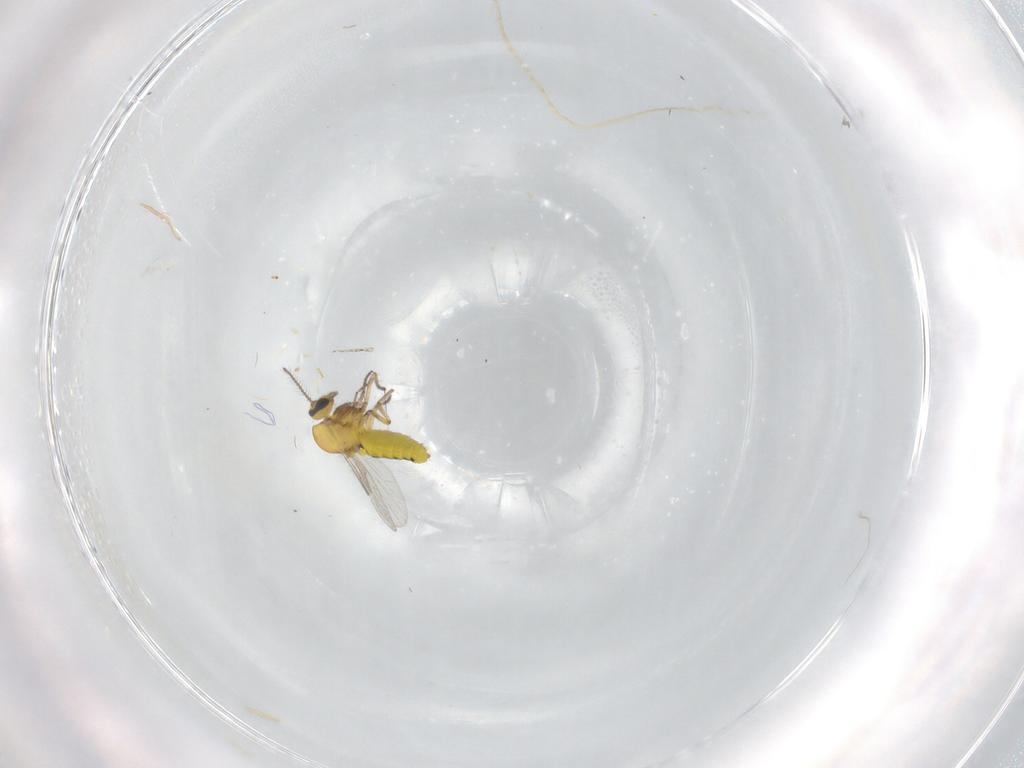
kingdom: Animalia
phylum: Arthropoda
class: Insecta
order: Diptera
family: Ceratopogonidae
